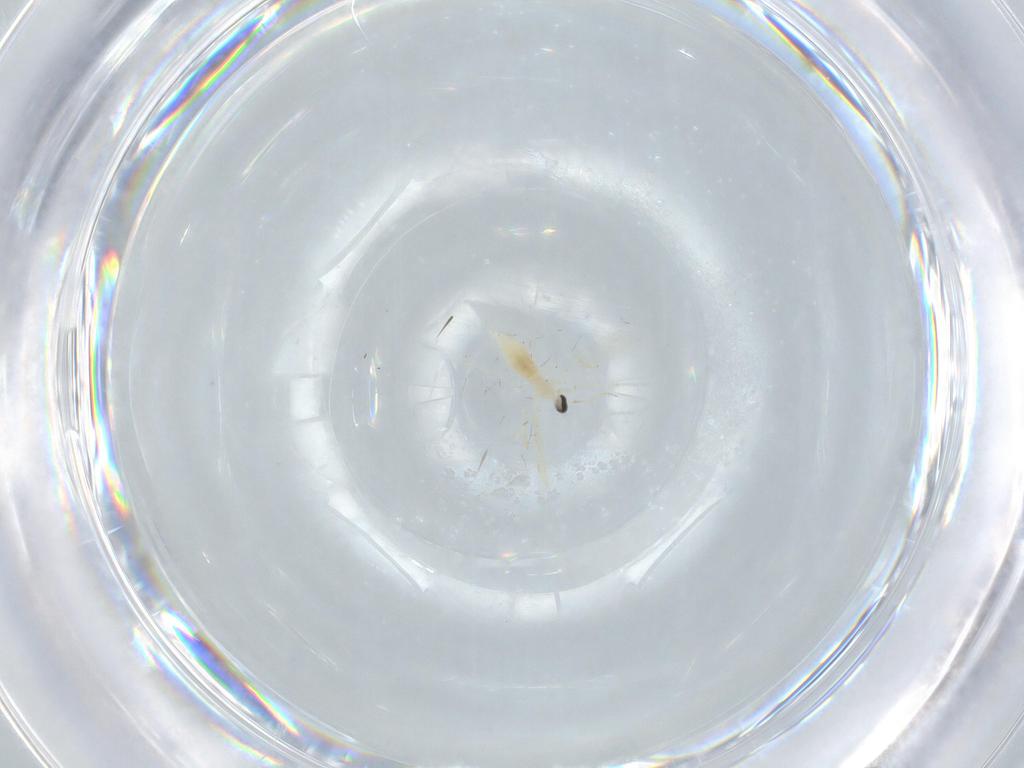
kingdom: Animalia
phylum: Arthropoda
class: Insecta
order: Diptera
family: Cecidomyiidae
